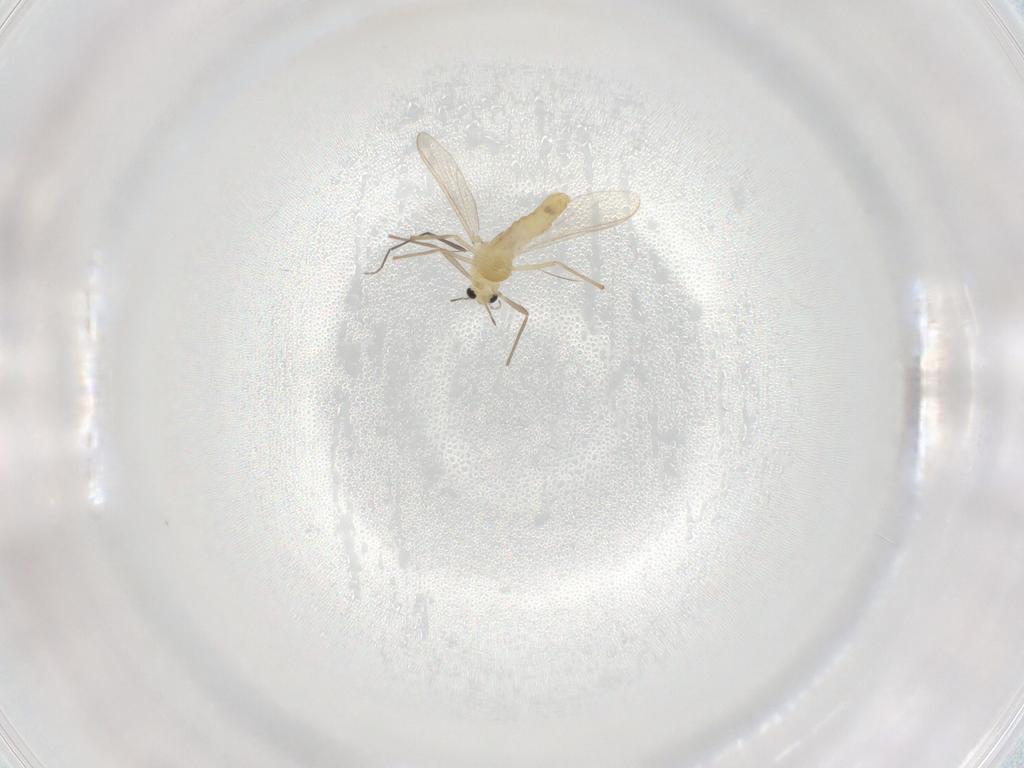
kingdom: Animalia
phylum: Arthropoda
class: Insecta
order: Diptera
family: Chironomidae
